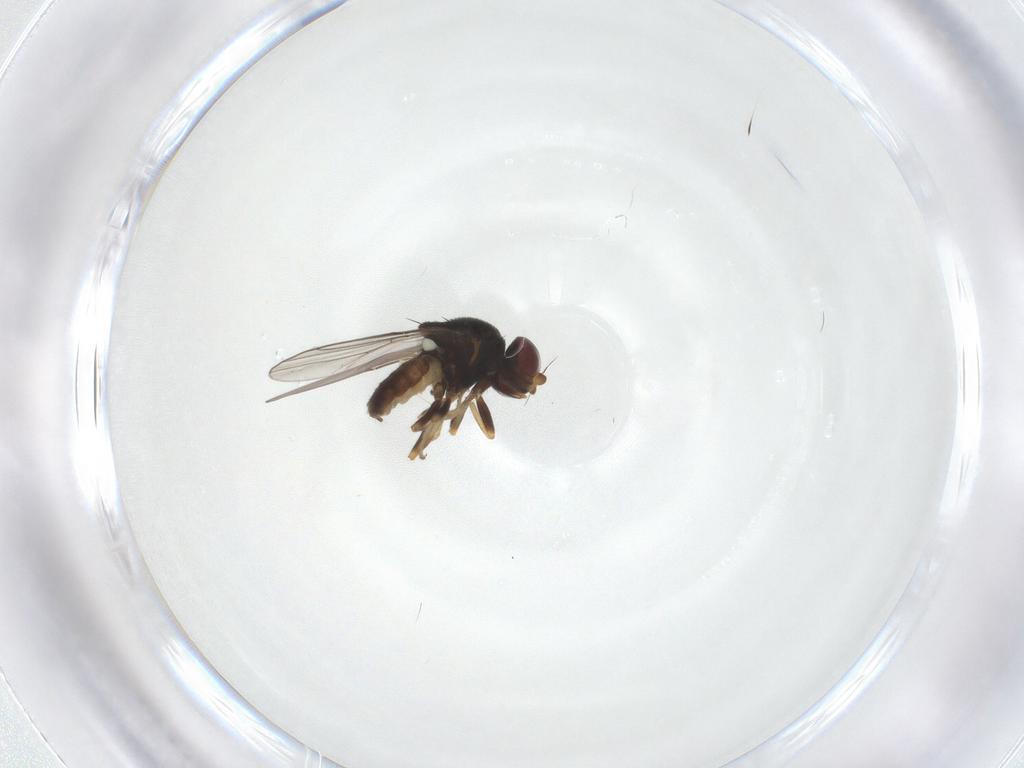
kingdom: Animalia
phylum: Arthropoda
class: Insecta
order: Diptera
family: Chloropidae
